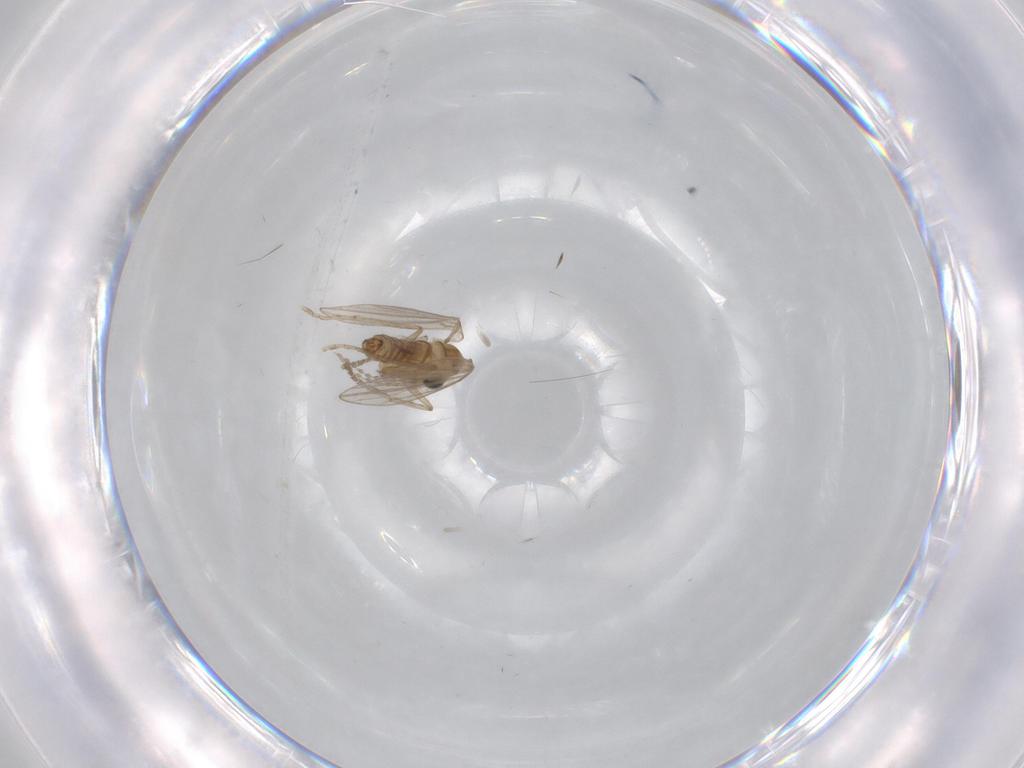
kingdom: Animalia
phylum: Arthropoda
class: Insecta
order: Diptera
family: Psychodidae
